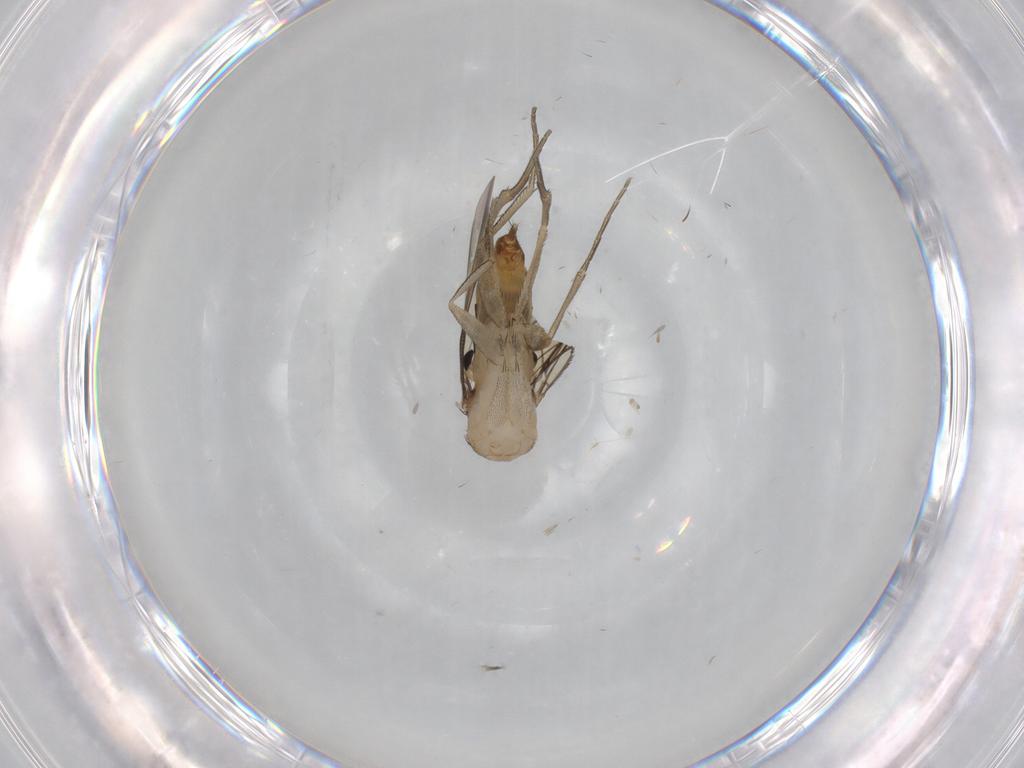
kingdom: Animalia
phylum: Arthropoda
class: Insecta
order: Diptera
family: Phoridae
